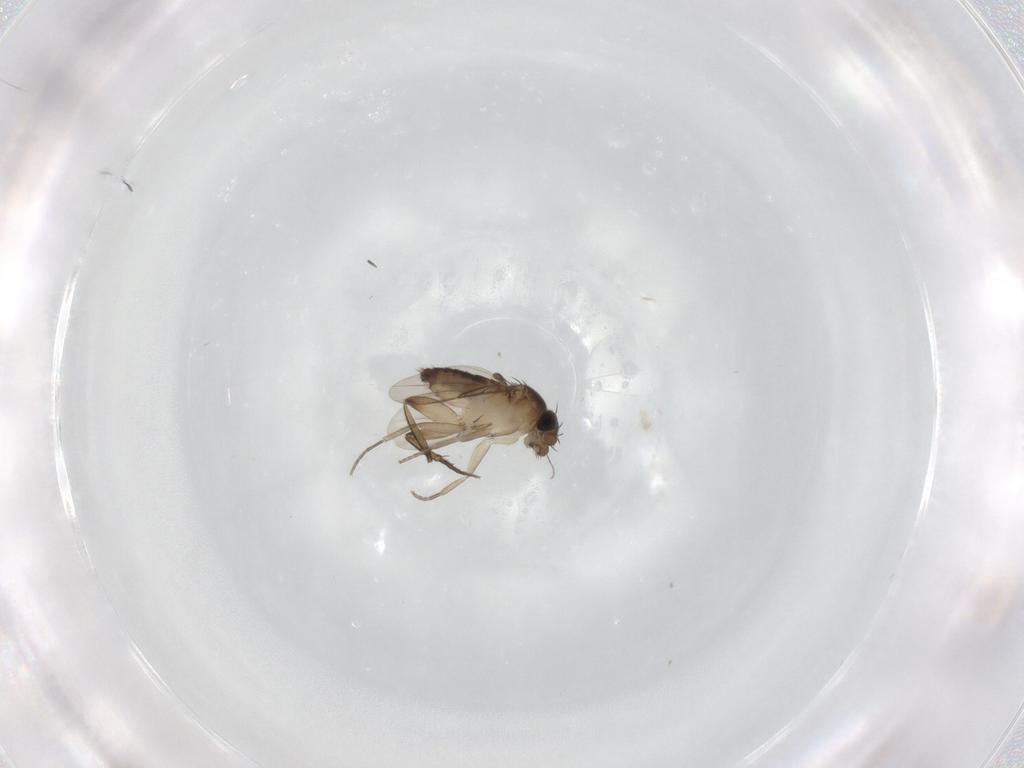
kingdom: Animalia
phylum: Arthropoda
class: Insecta
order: Diptera
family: Phoridae
